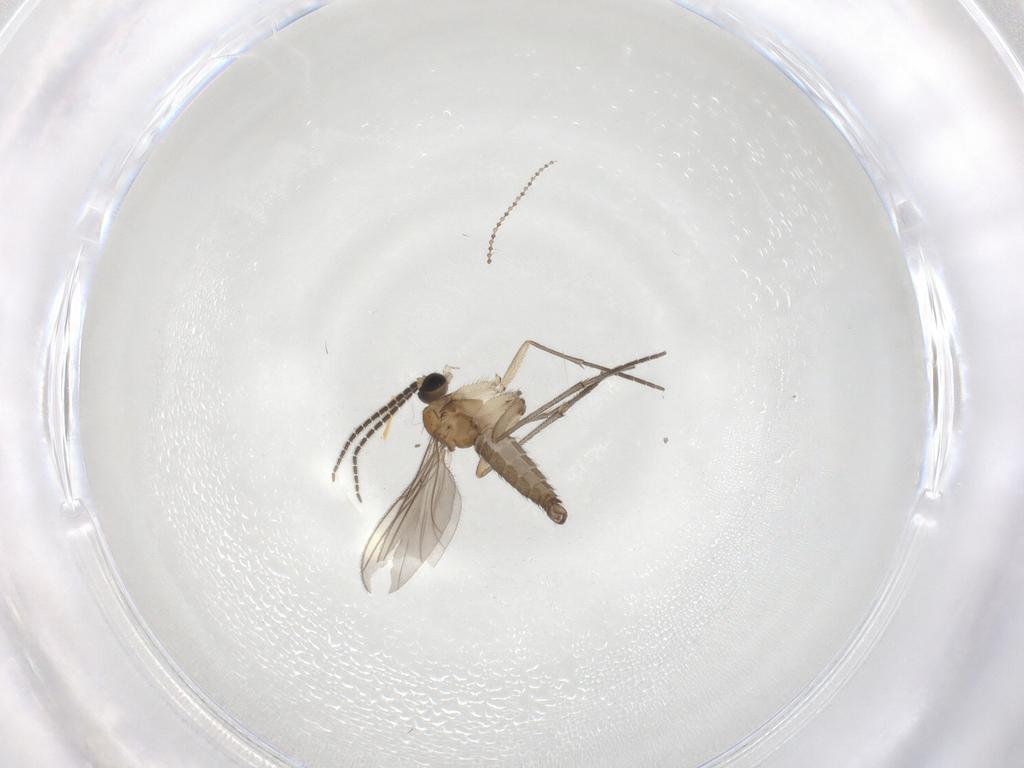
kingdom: Animalia
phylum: Arthropoda
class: Insecta
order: Diptera
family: Sciaridae
